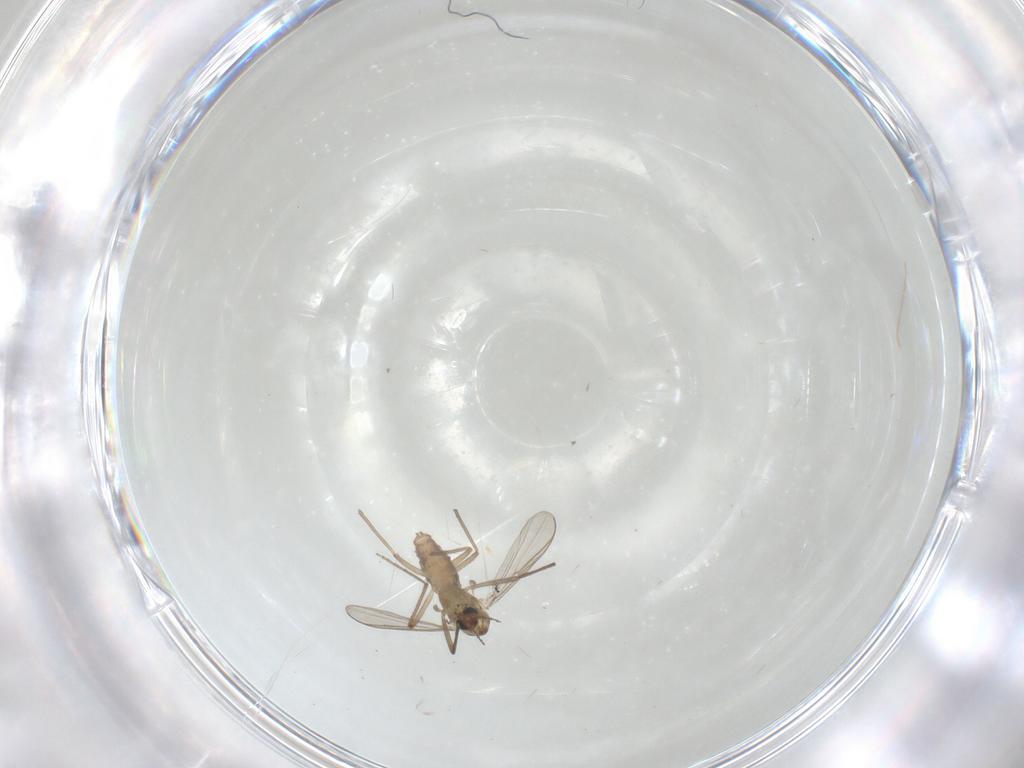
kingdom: Animalia
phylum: Arthropoda
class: Insecta
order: Diptera
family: Chironomidae
